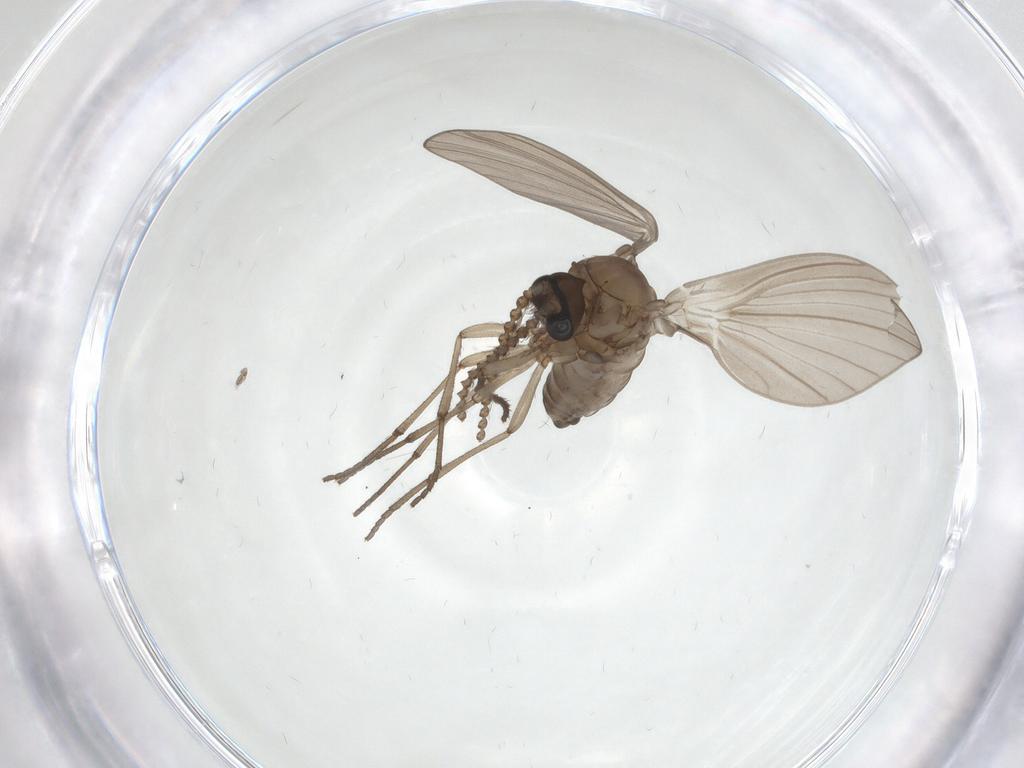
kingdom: Animalia
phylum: Arthropoda
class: Insecta
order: Diptera
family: Psychodidae
